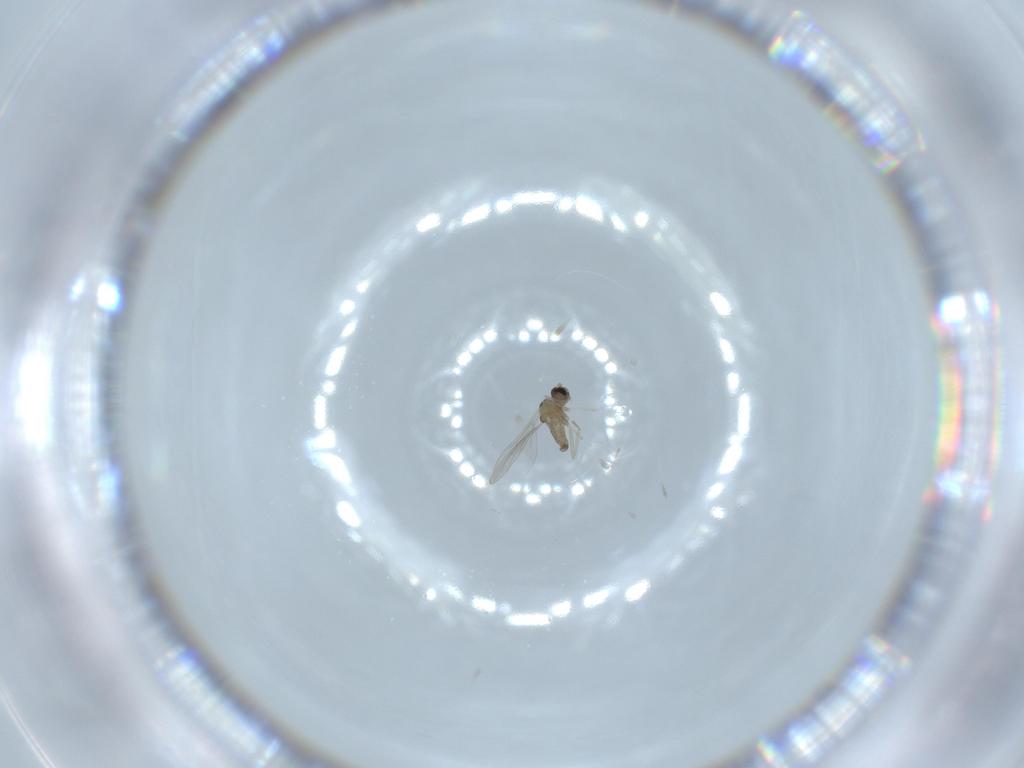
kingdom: Animalia
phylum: Arthropoda
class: Insecta
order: Diptera
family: Cecidomyiidae
